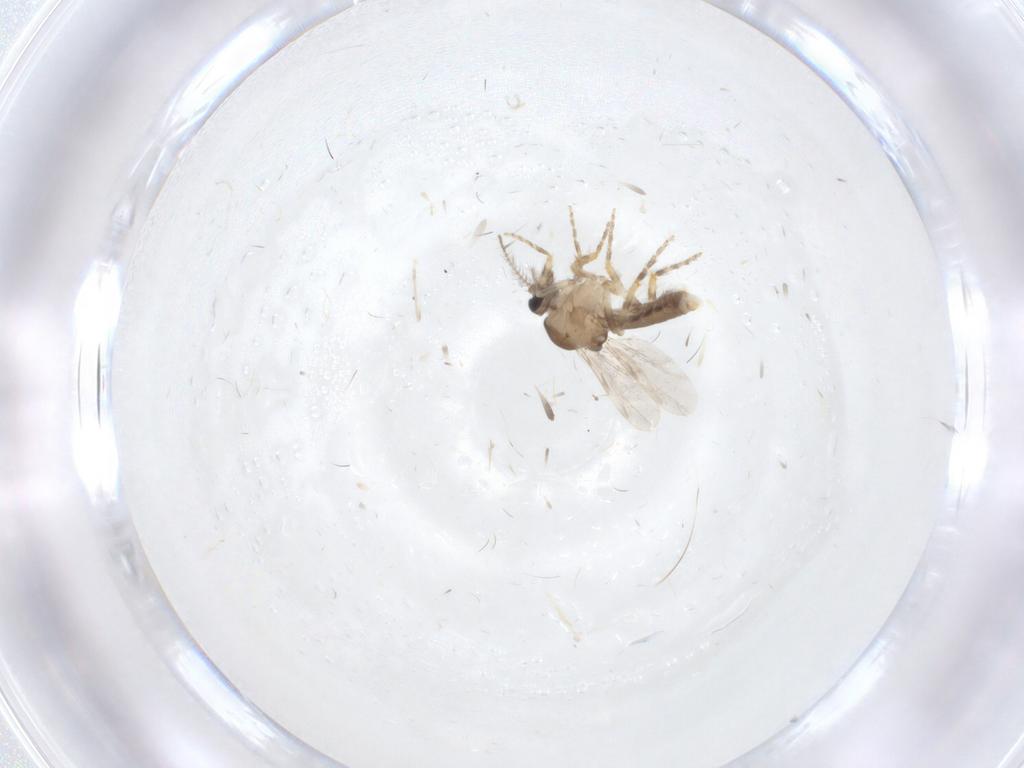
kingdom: Animalia
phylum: Arthropoda
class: Insecta
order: Diptera
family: Ceratopogonidae
